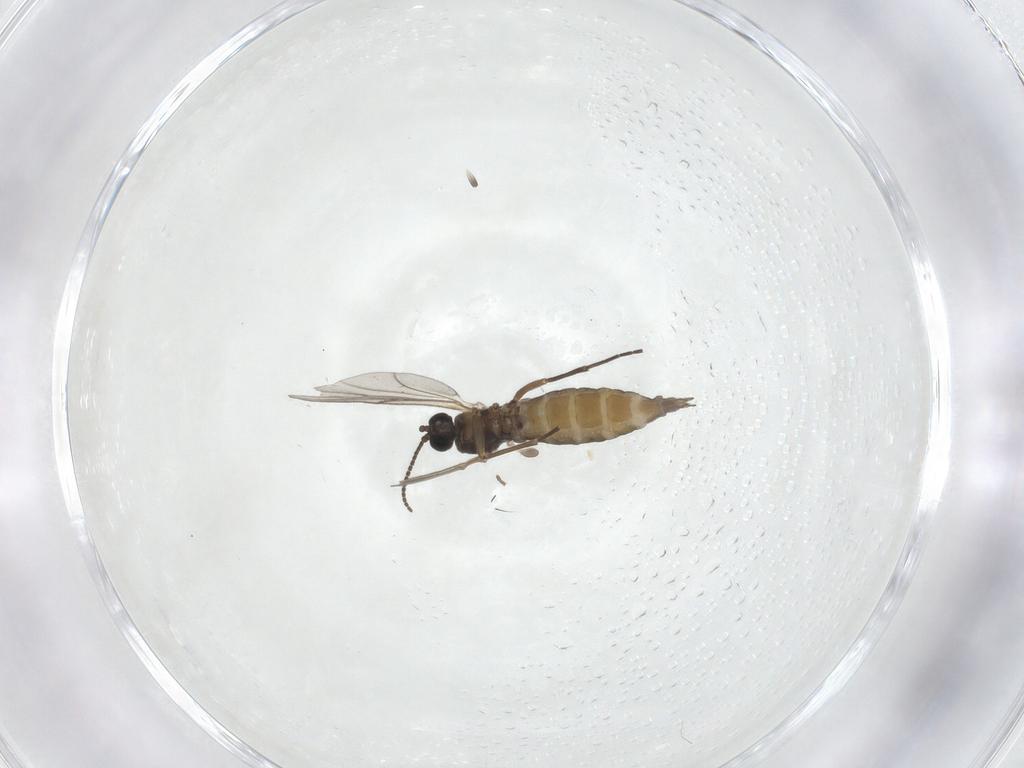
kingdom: Animalia
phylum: Arthropoda
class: Insecta
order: Diptera
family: Sciaridae
